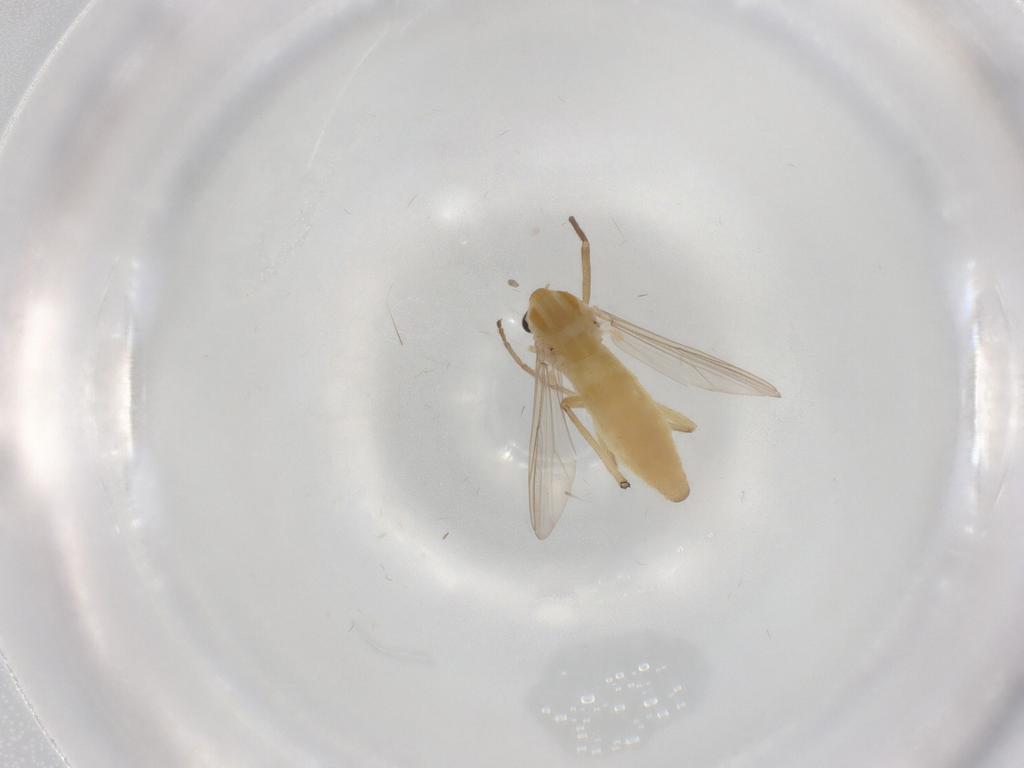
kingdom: Animalia
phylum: Arthropoda
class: Insecta
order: Diptera
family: Chironomidae
